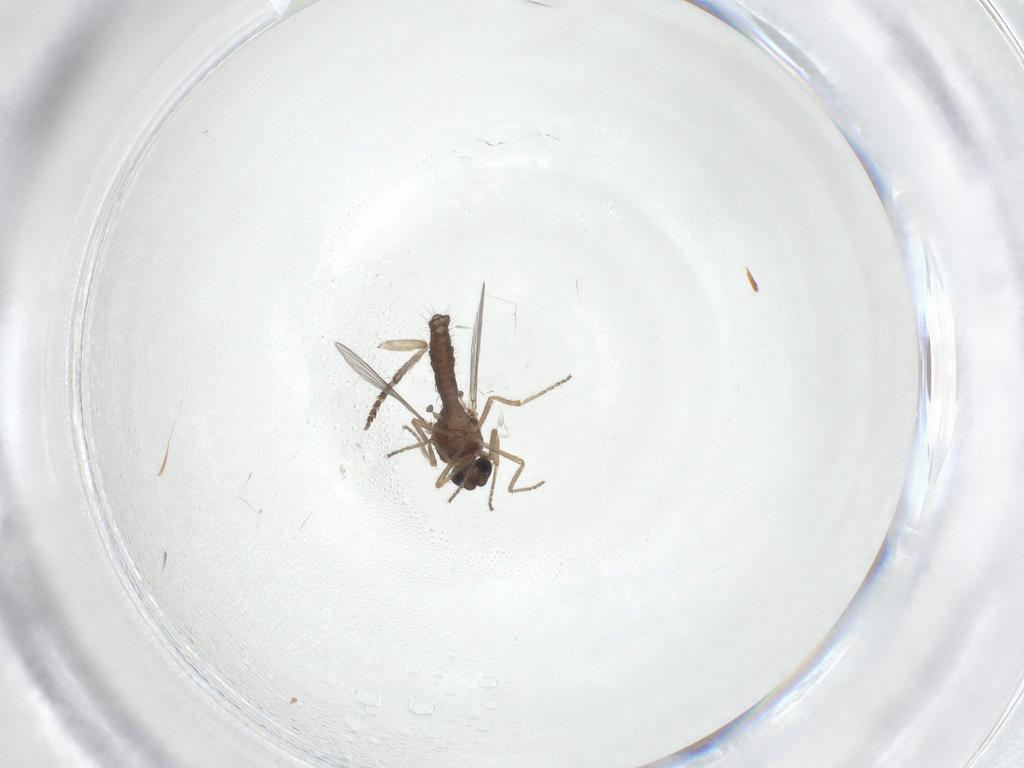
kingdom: Animalia
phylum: Arthropoda
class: Insecta
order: Diptera
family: Ceratopogonidae
